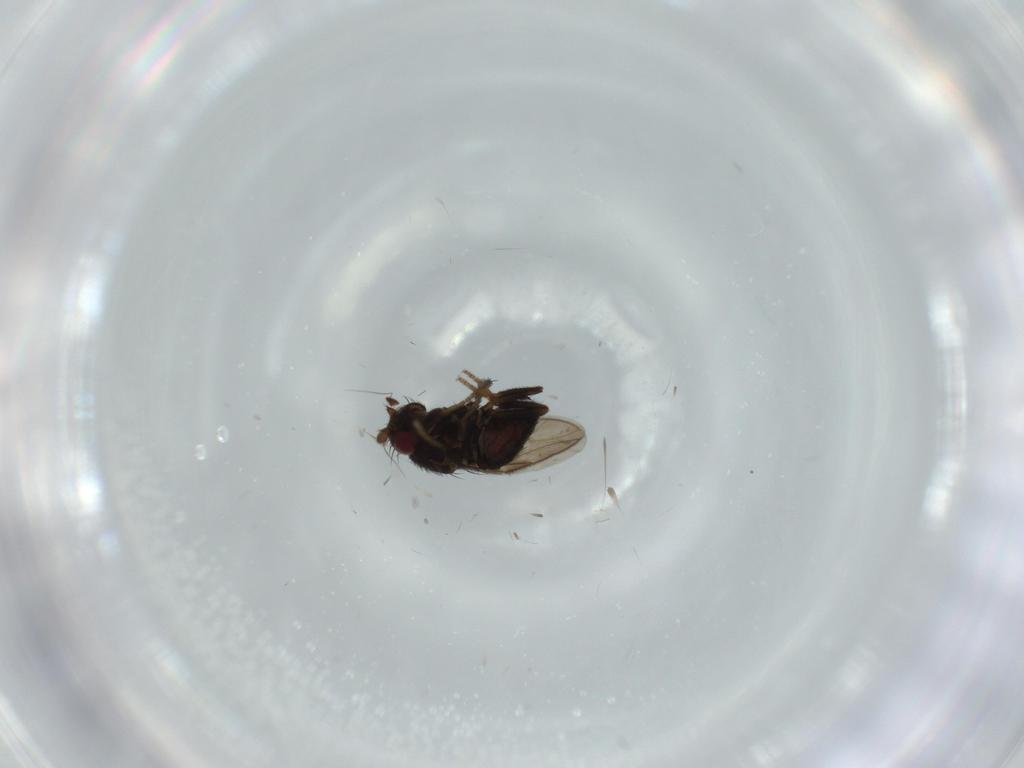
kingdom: Animalia
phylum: Arthropoda
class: Insecta
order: Diptera
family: Sphaeroceridae
